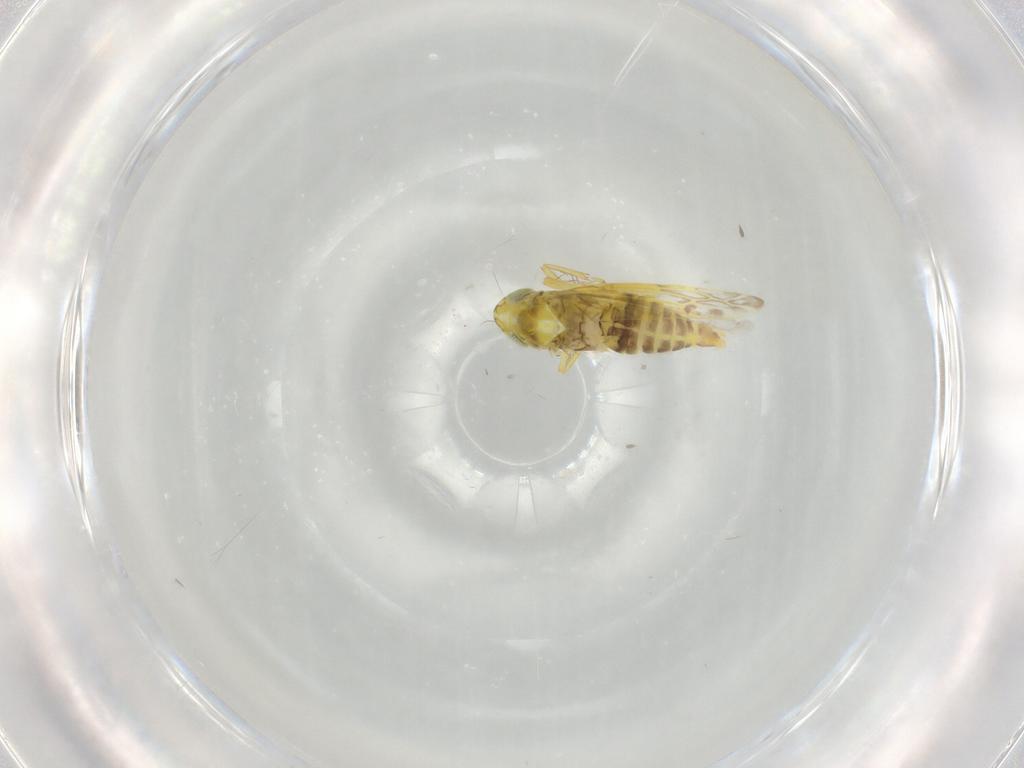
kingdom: Animalia
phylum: Arthropoda
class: Insecta
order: Hemiptera
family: Cicadellidae
